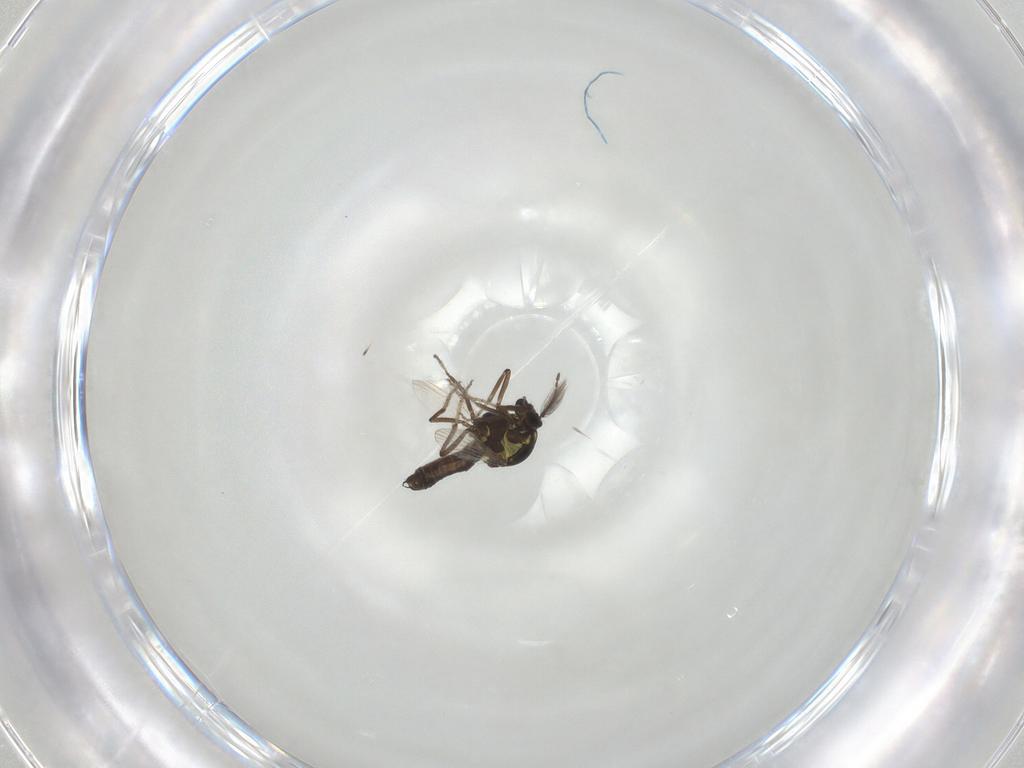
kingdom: Animalia
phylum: Arthropoda
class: Insecta
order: Diptera
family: Ceratopogonidae
